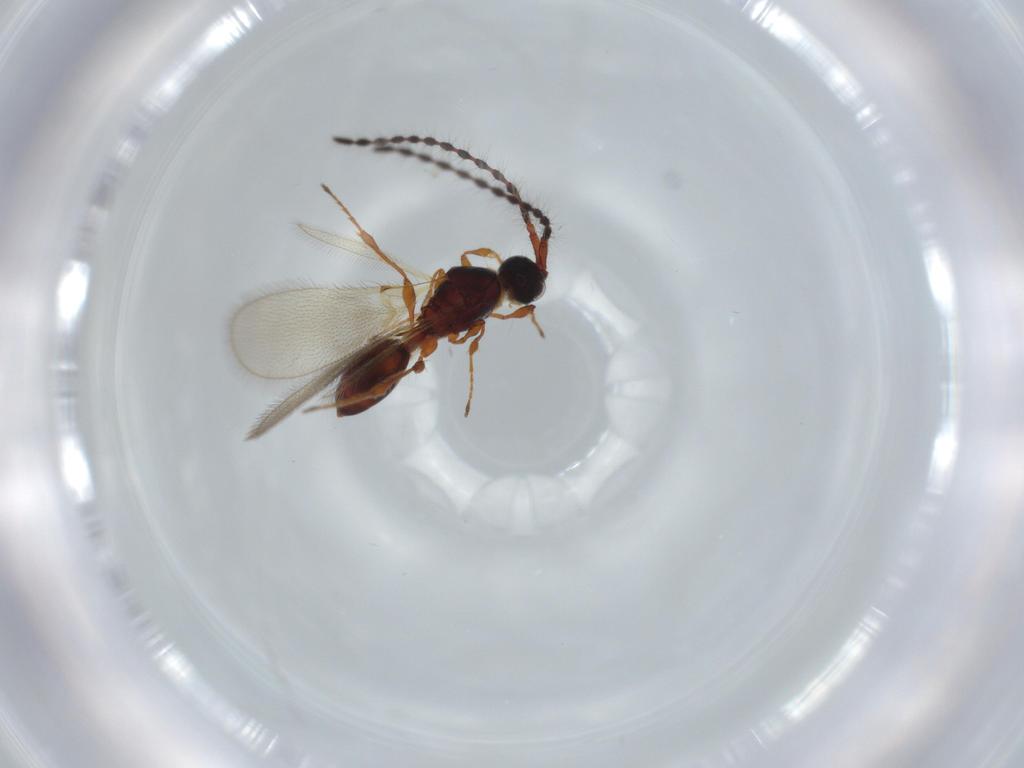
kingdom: Animalia
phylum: Arthropoda
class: Insecta
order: Hymenoptera
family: Diapriidae
